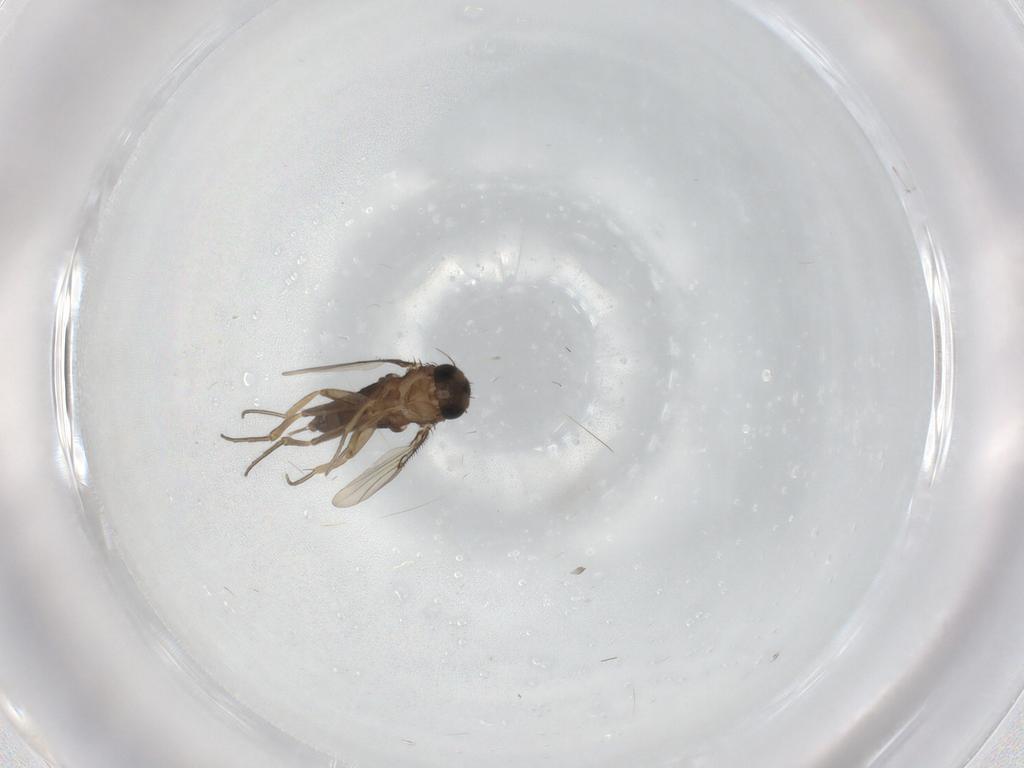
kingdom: Animalia
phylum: Arthropoda
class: Insecta
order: Diptera
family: Phoridae
